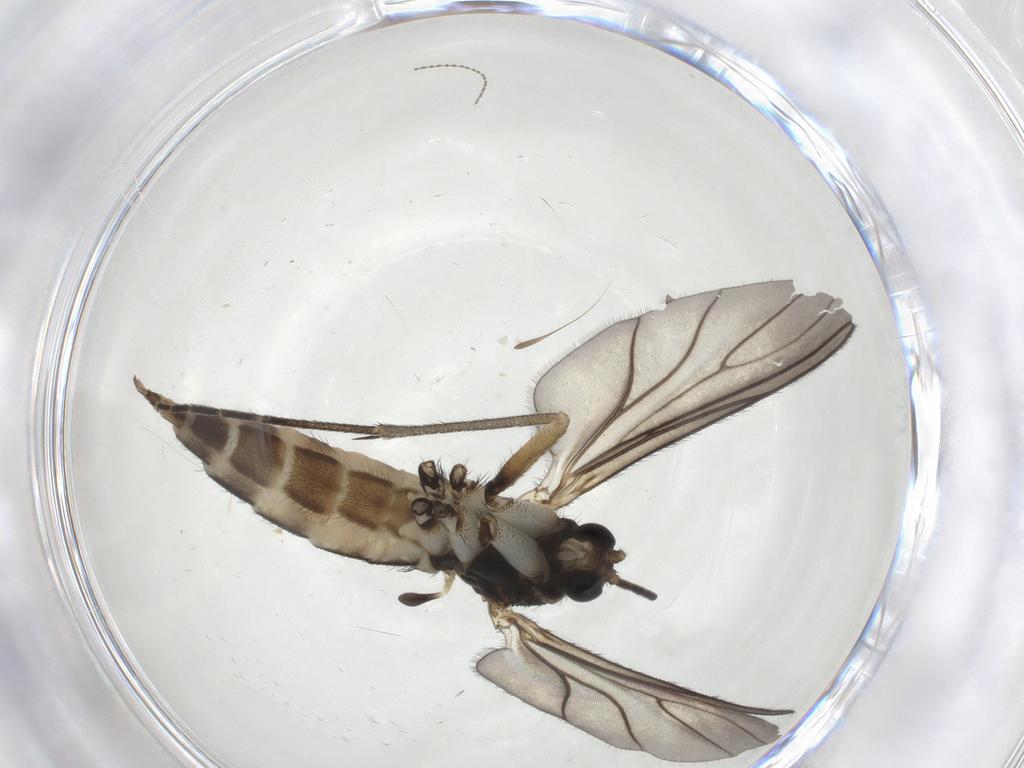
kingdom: Animalia
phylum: Arthropoda
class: Insecta
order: Diptera
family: Sciaridae
